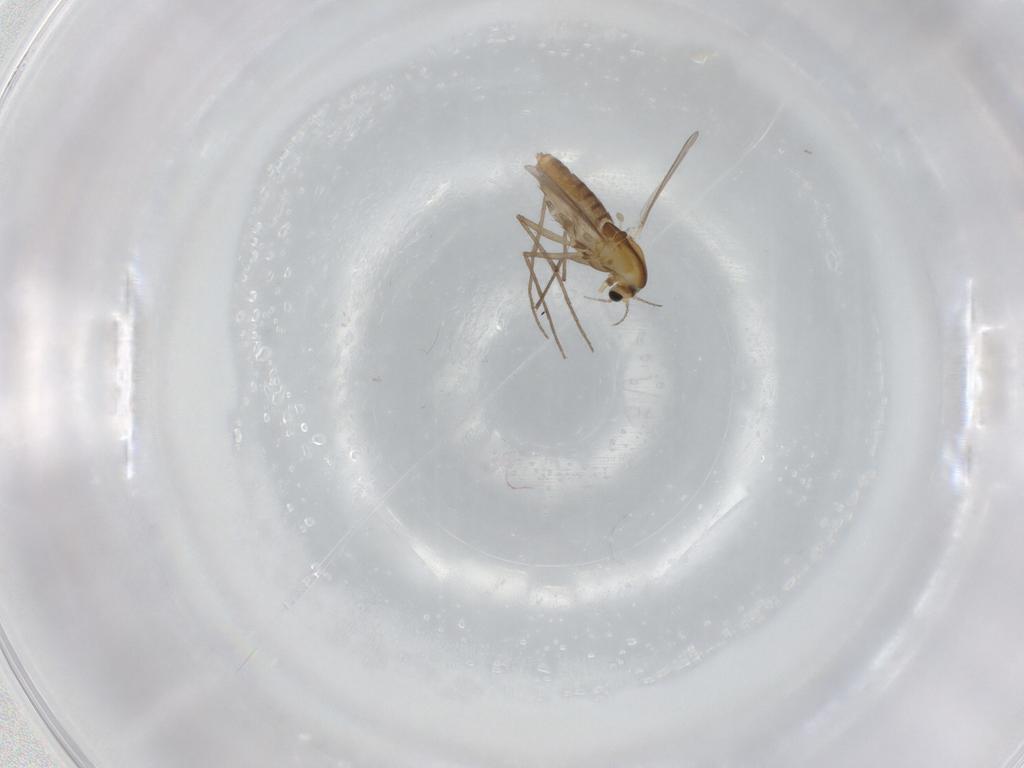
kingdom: Animalia
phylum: Arthropoda
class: Insecta
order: Diptera
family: Chironomidae
